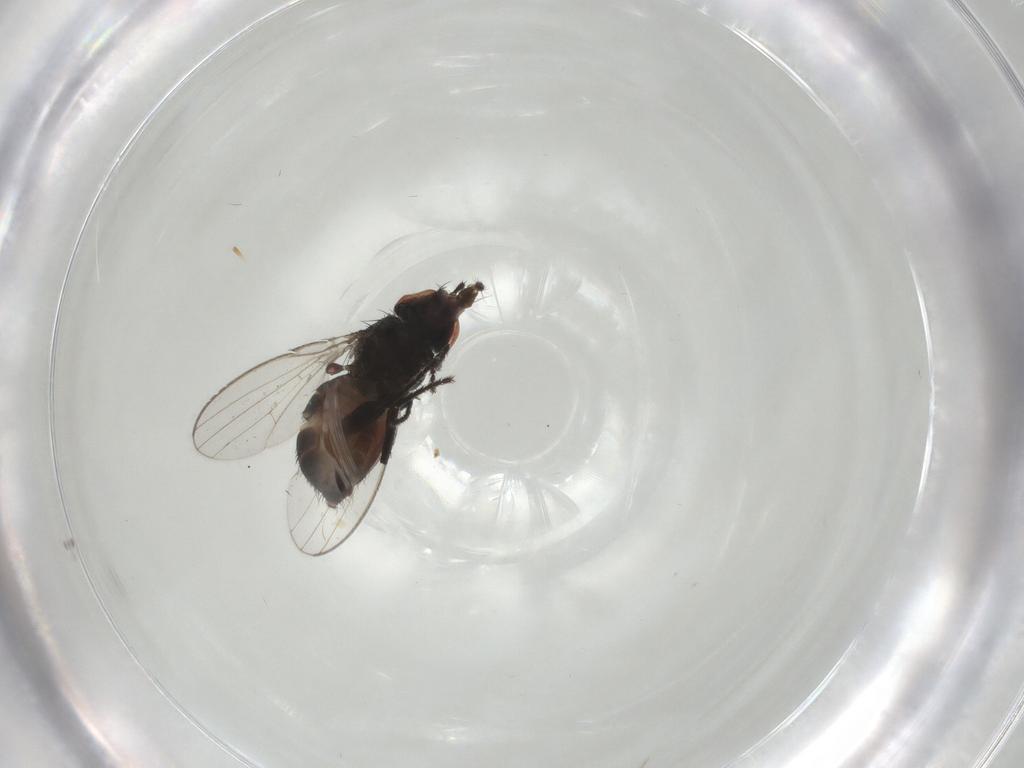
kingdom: Animalia
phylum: Arthropoda
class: Insecta
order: Diptera
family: Milichiidae
